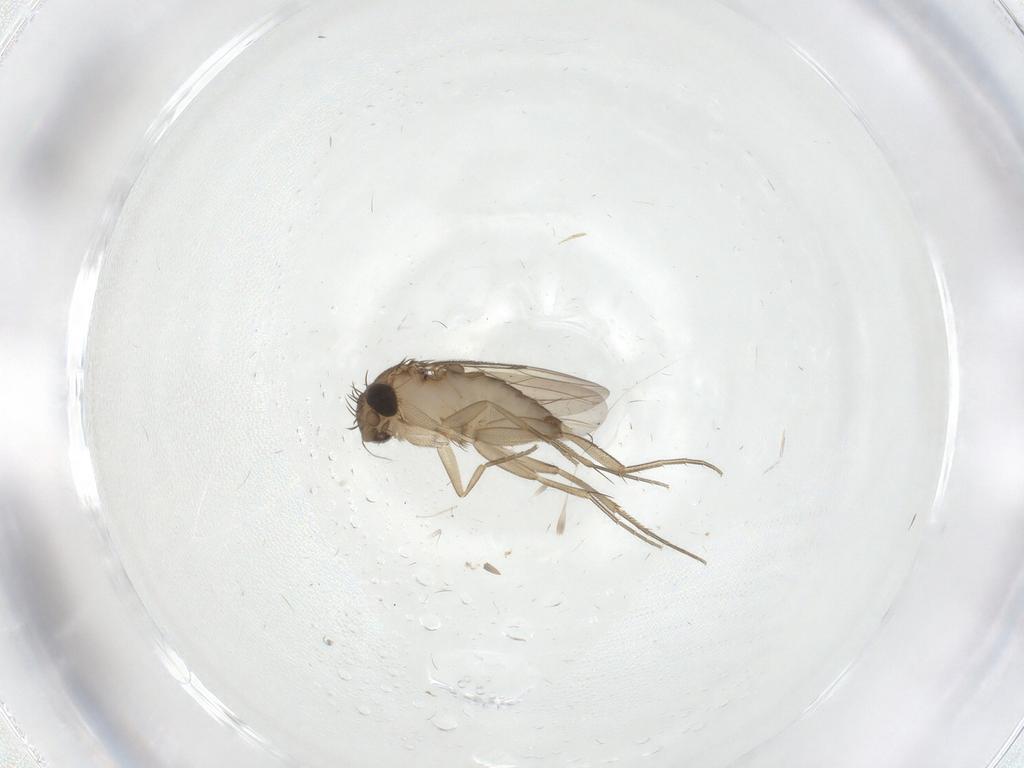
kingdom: Animalia
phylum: Arthropoda
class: Insecta
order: Diptera
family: Phoridae
